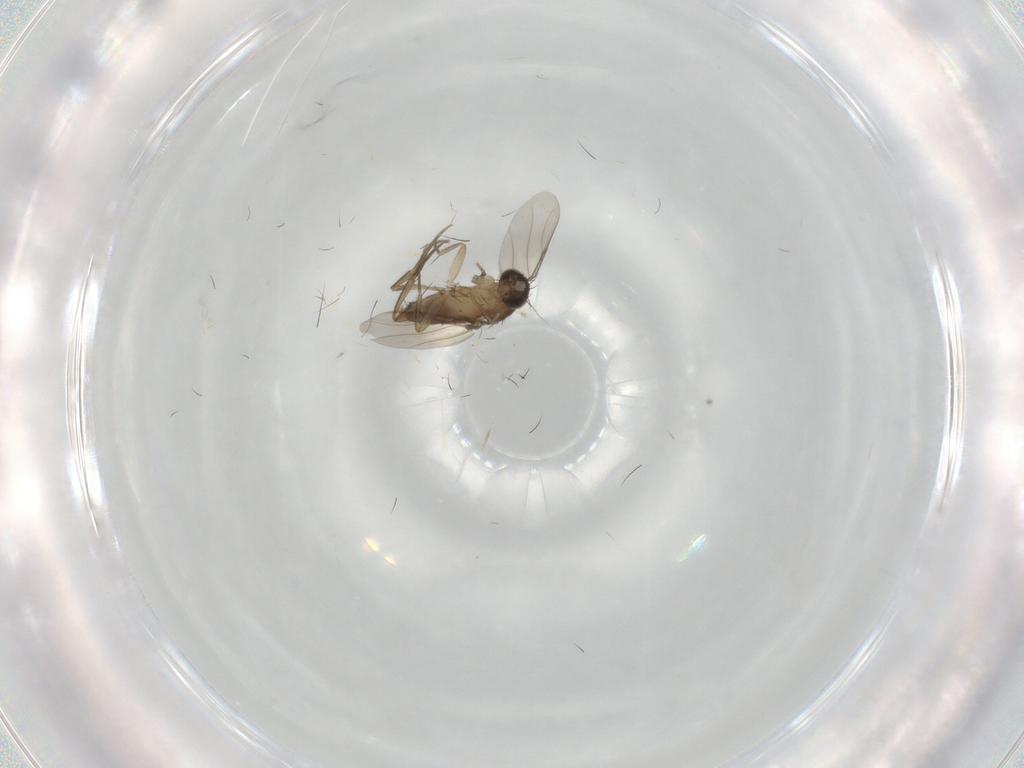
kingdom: Animalia
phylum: Arthropoda
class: Insecta
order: Diptera
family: Phoridae
